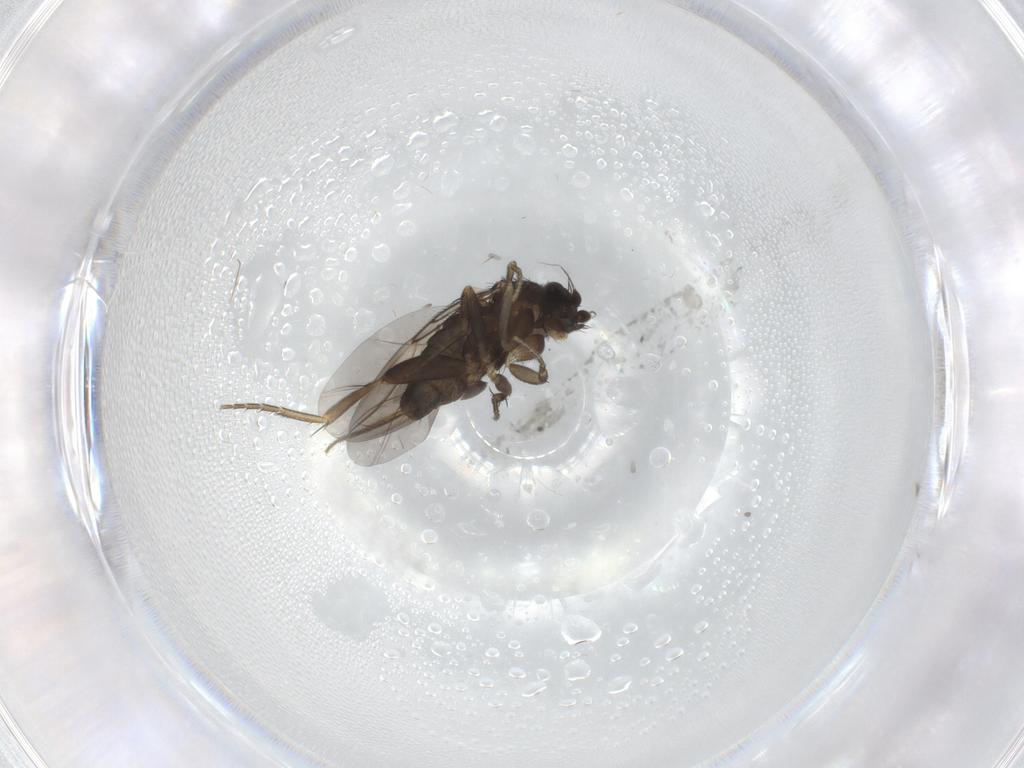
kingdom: Animalia
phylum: Arthropoda
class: Insecta
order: Diptera
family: Phoridae
